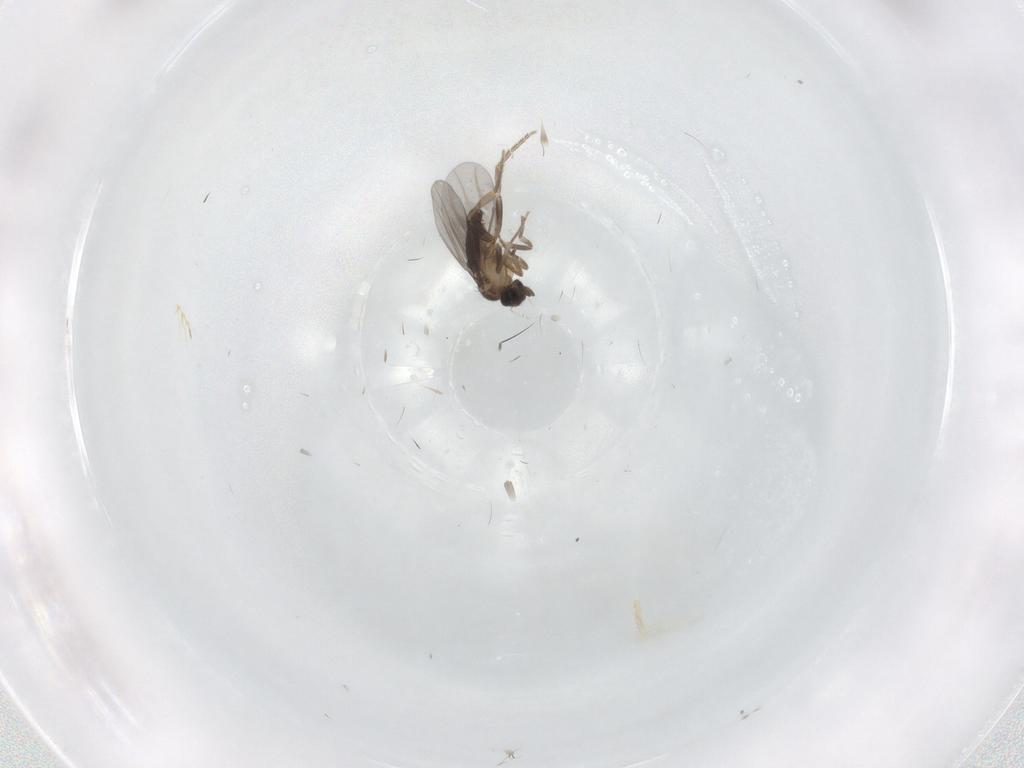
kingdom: Animalia
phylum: Arthropoda
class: Insecta
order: Diptera
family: Chironomidae
